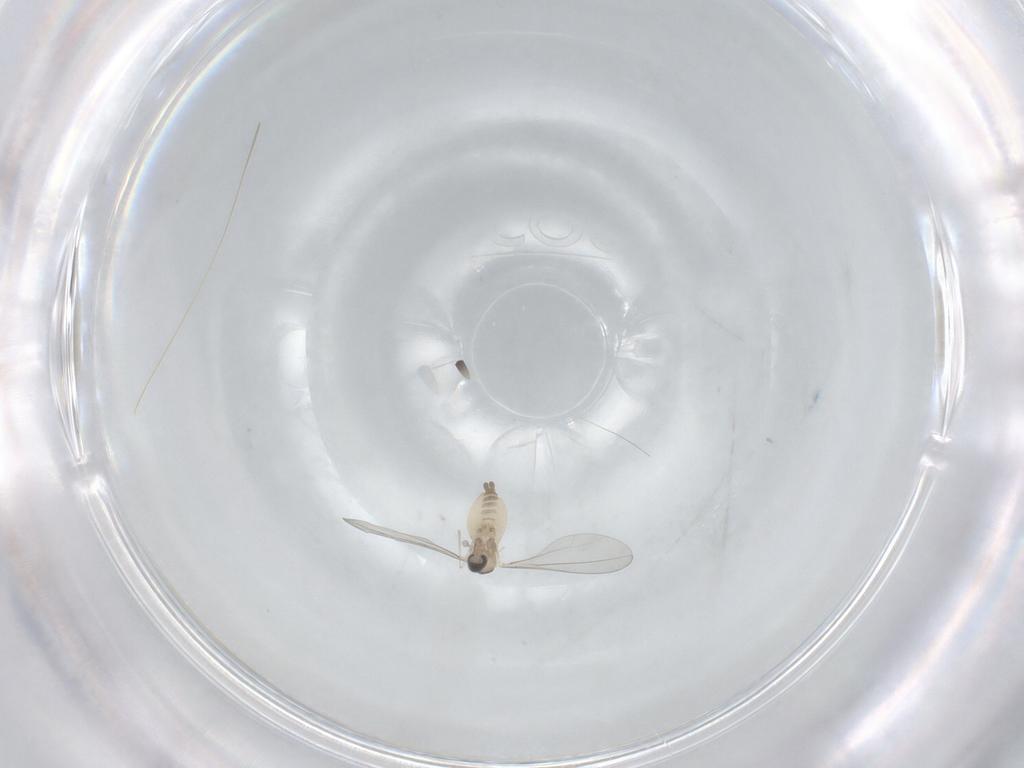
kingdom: Animalia
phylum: Arthropoda
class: Insecta
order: Diptera
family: Cecidomyiidae
